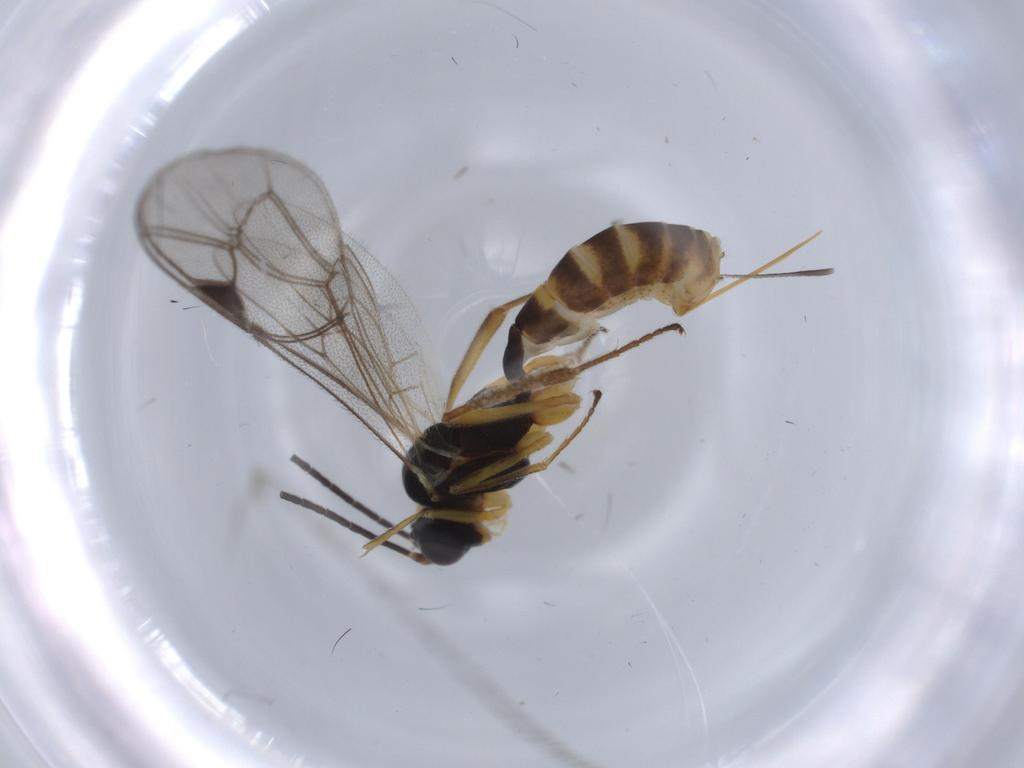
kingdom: Animalia
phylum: Arthropoda
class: Insecta
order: Hymenoptera
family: Ichneumonidae
